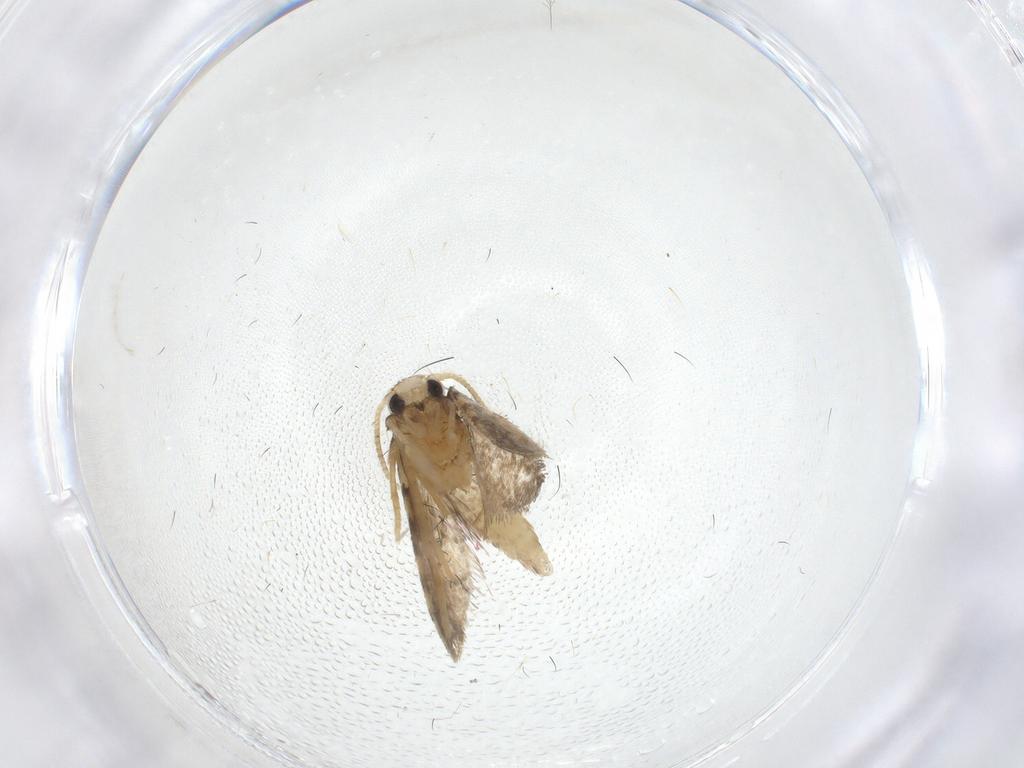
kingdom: Animalia
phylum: Arthropoda
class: Insecta
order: Lepidoptera
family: Psychidae
